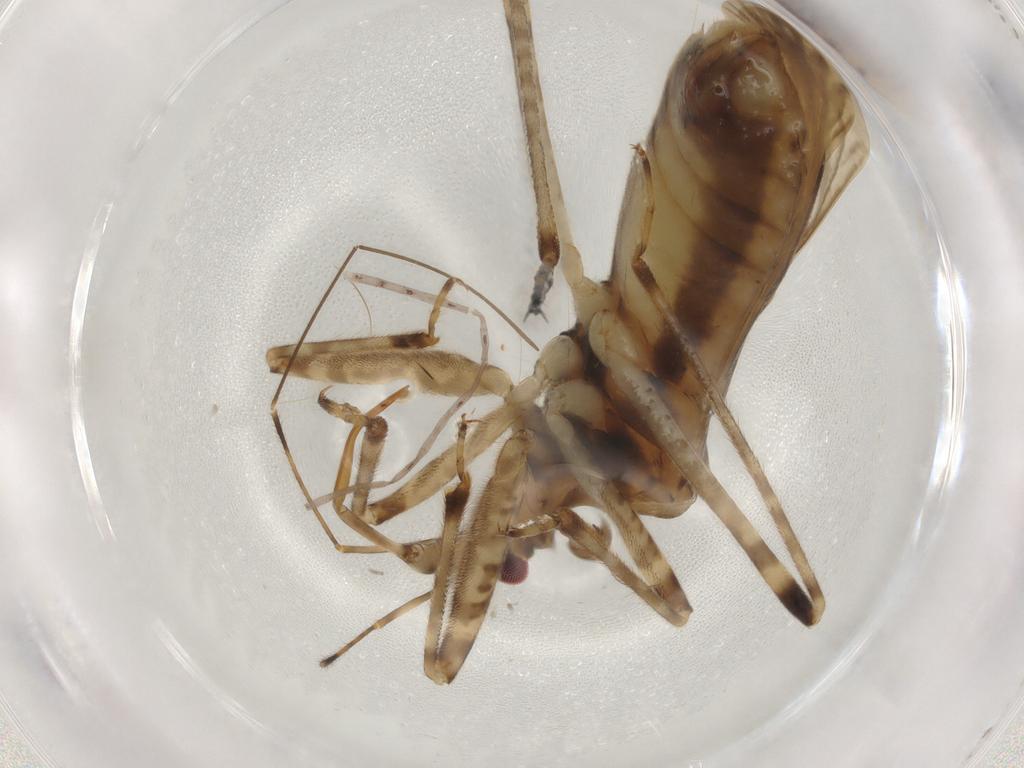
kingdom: Animalia
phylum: Arthropoda
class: Insecta
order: Hemiptera
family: Nabidae
